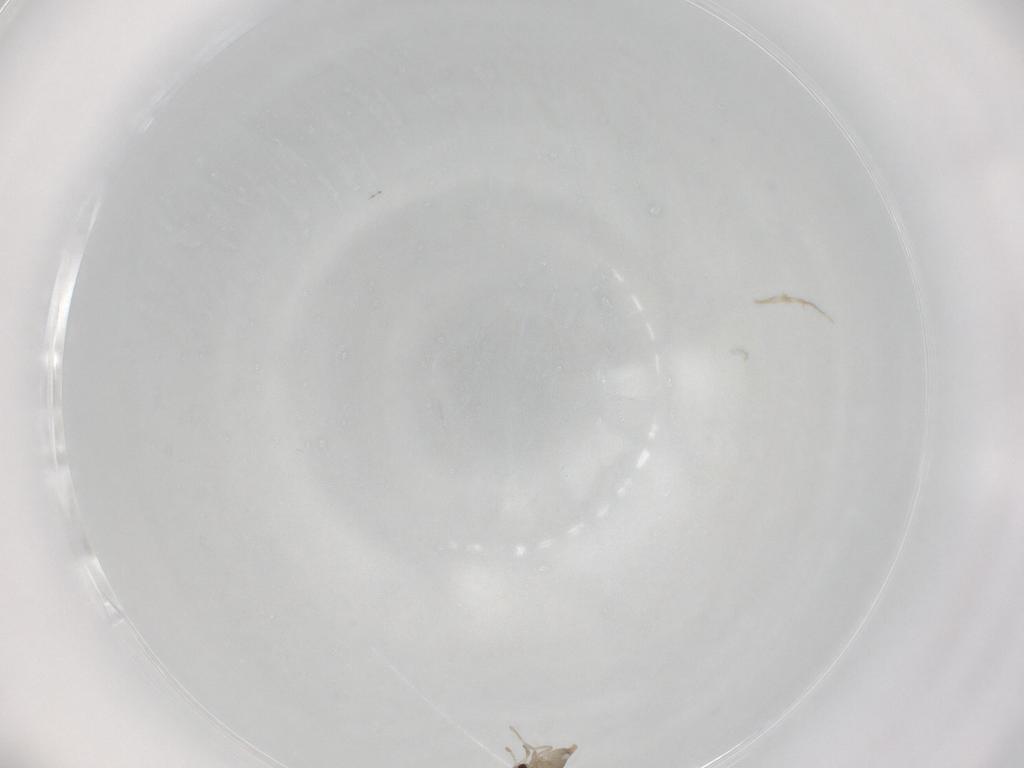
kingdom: Animalia
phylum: Arthropoda
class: Insecta
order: Diptera
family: Cecidomyiidae
